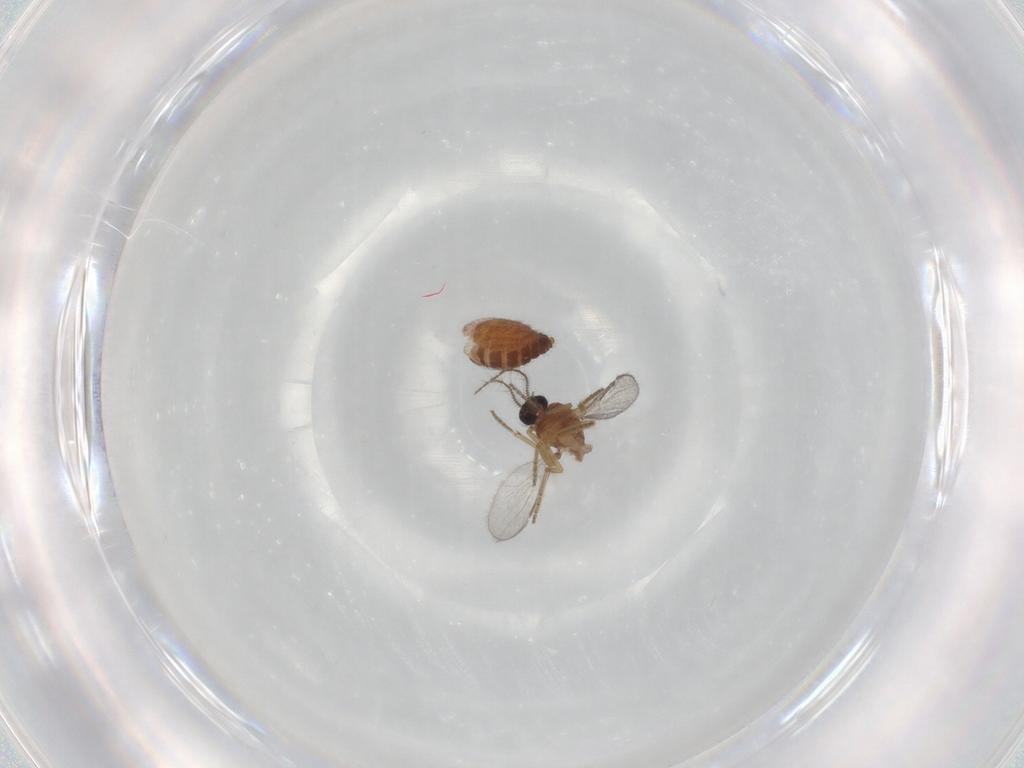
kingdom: Animalia
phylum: Arthropoda
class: Insecta
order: Diptera
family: Ceratopogonidae
